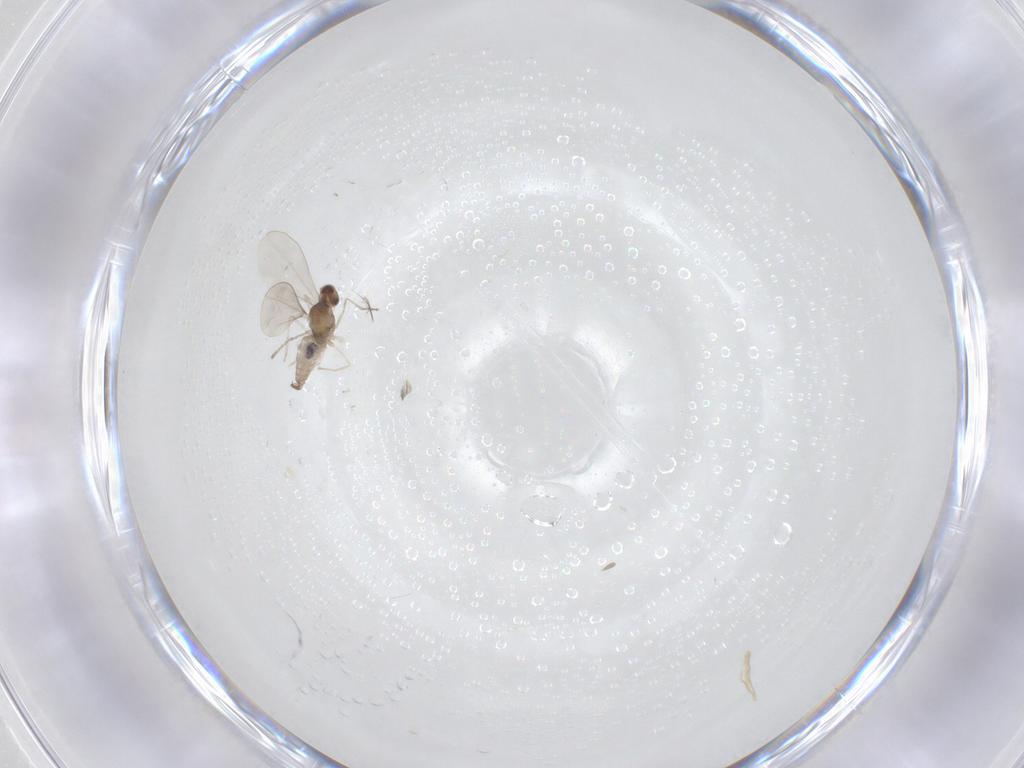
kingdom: Animalia
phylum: Arthropoda
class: Insecta
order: Diptera
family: Cecidomyiidae
